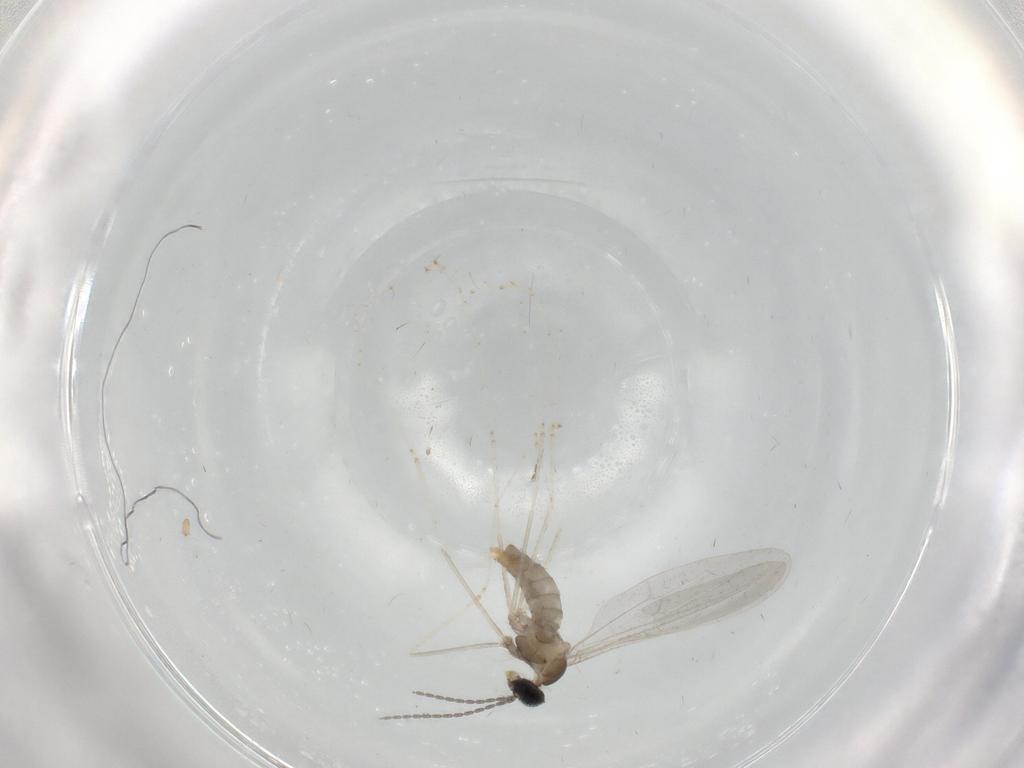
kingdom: Animalia
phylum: Arthropoda
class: Insecta
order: Diptera
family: Cecidomyiidae
